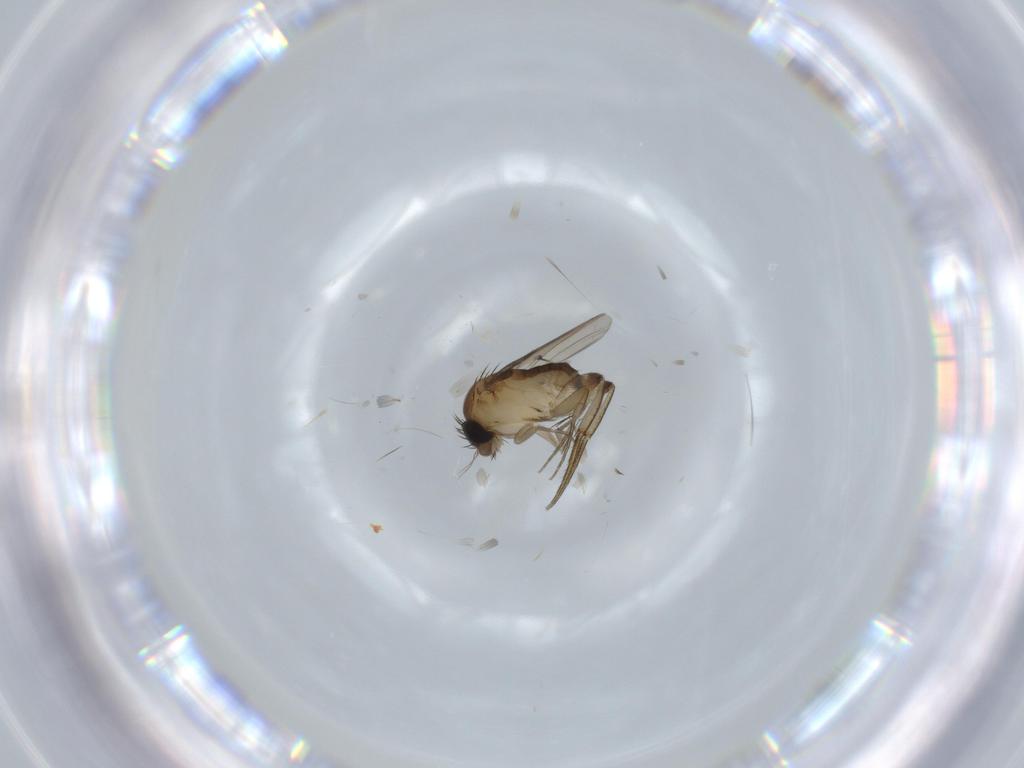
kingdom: Animalia
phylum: Arthropoda
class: Insecta
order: Diptera
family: Phoridae
